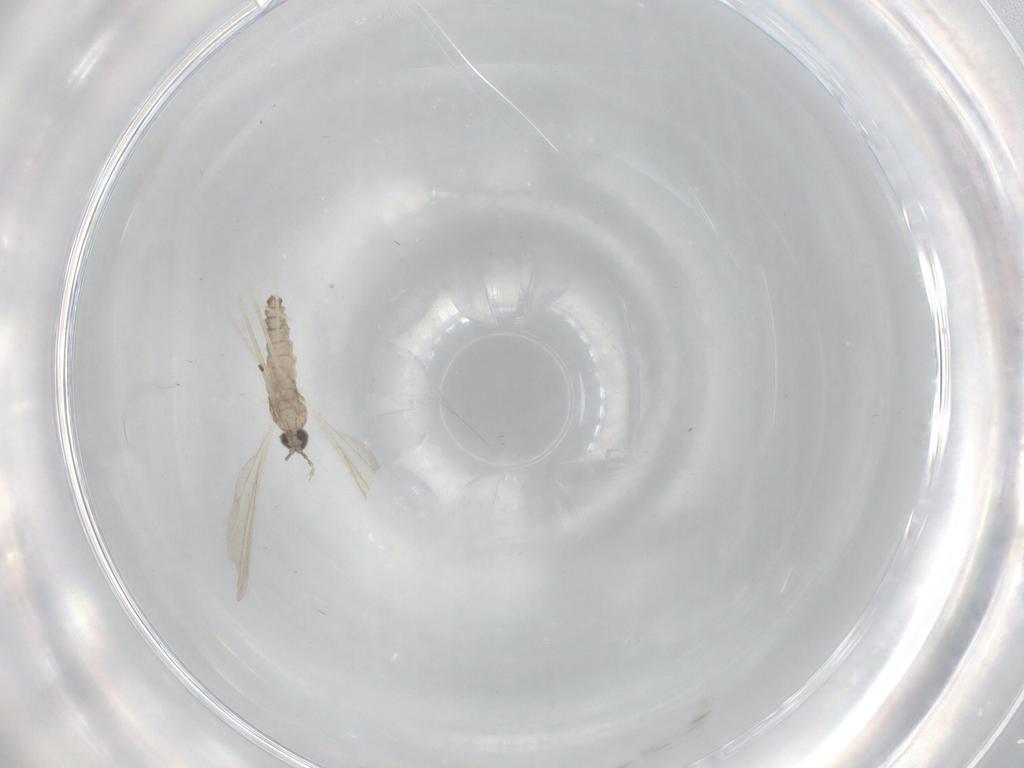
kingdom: Animalia
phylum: Arthropoda
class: Insecta
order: Diptera
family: Cecidomyiidae
